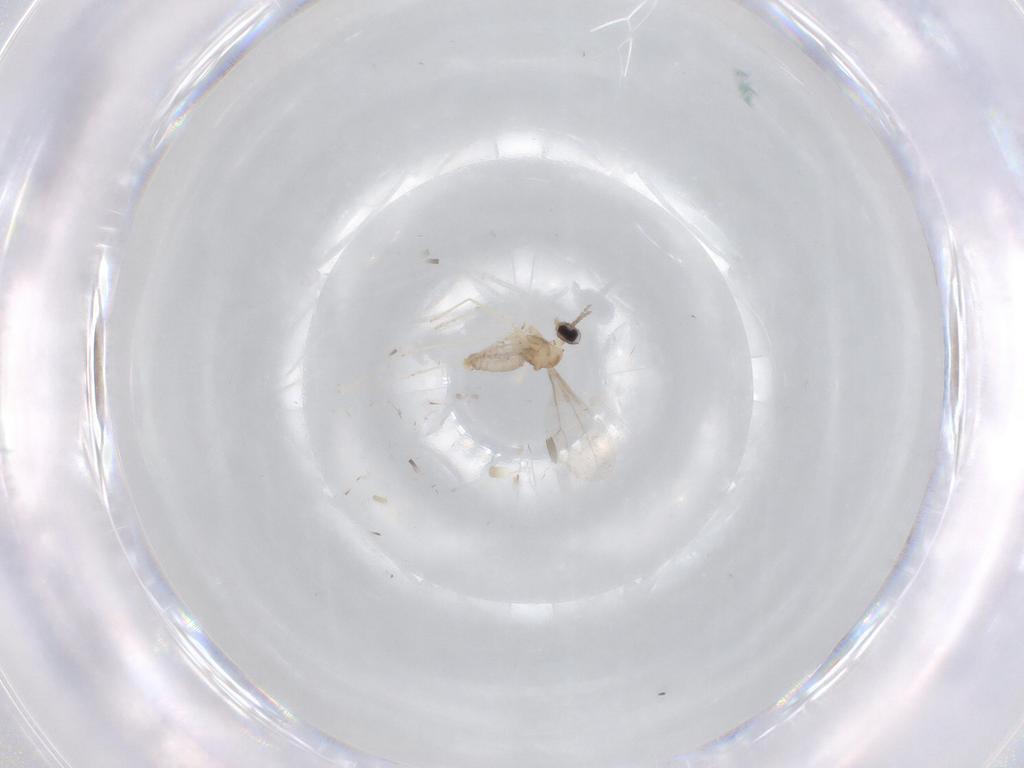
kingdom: Animalia
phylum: Arthropoda
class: Insecta
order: Diptera
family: Cecidomyiidae
